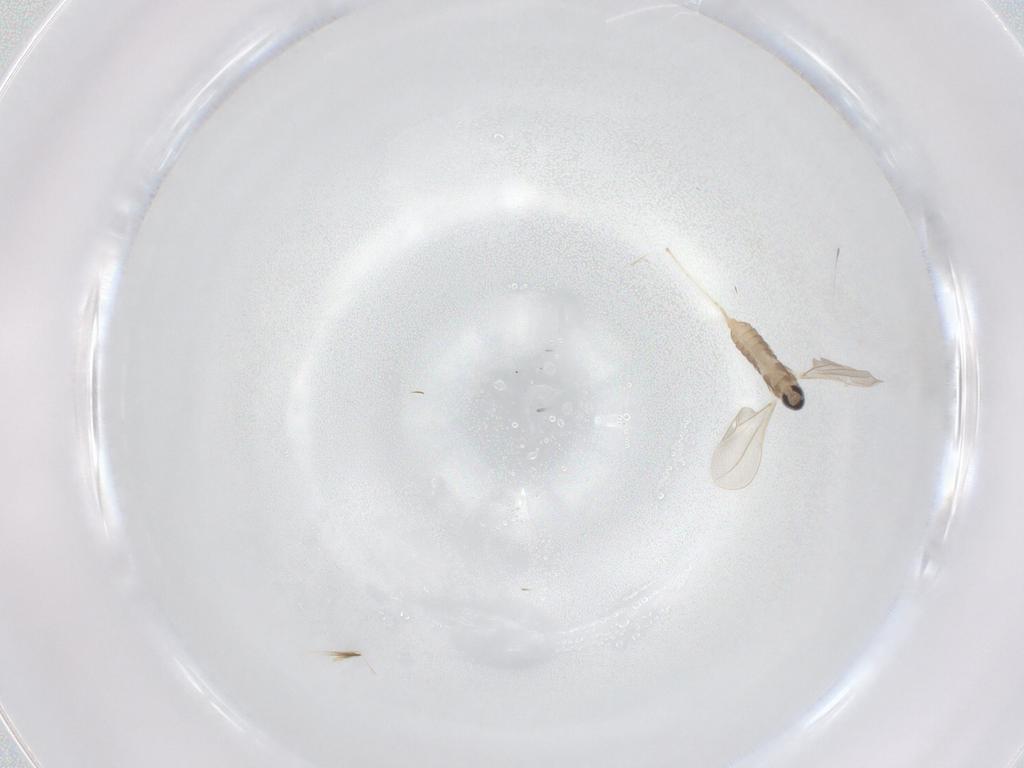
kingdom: Animalia
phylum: Arthropoda
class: Insecta
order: Diptera
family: Cecidomyiidae
